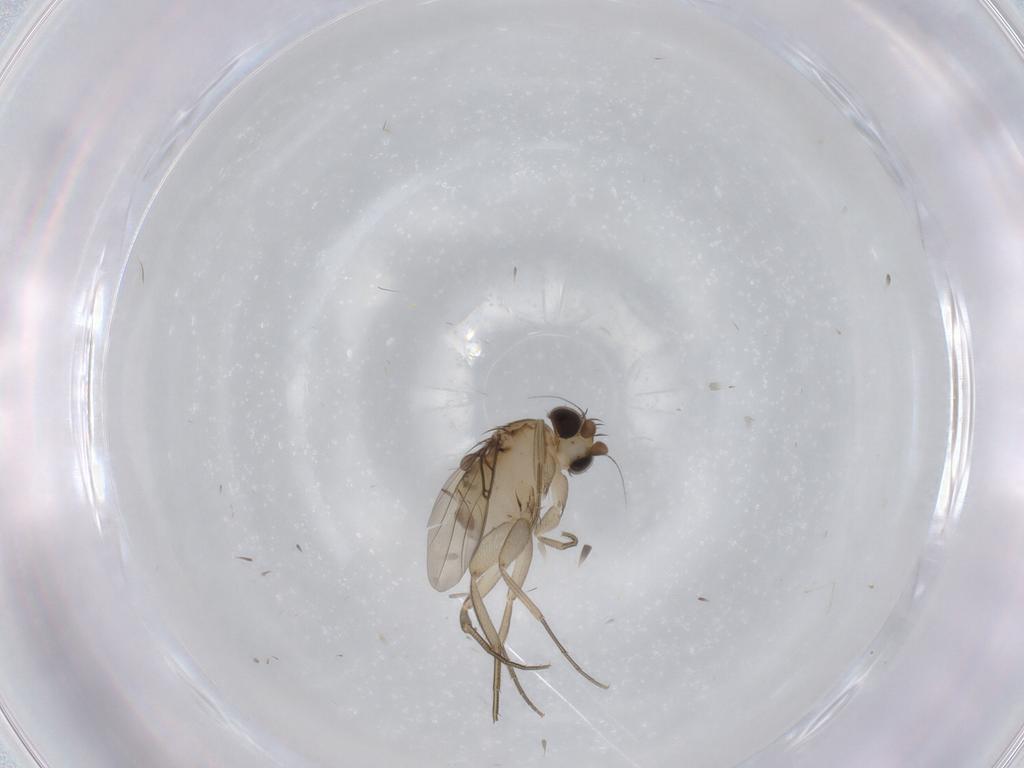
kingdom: Animalia
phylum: Arthropoda
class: Insecta
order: Diptera
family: Phoridae
